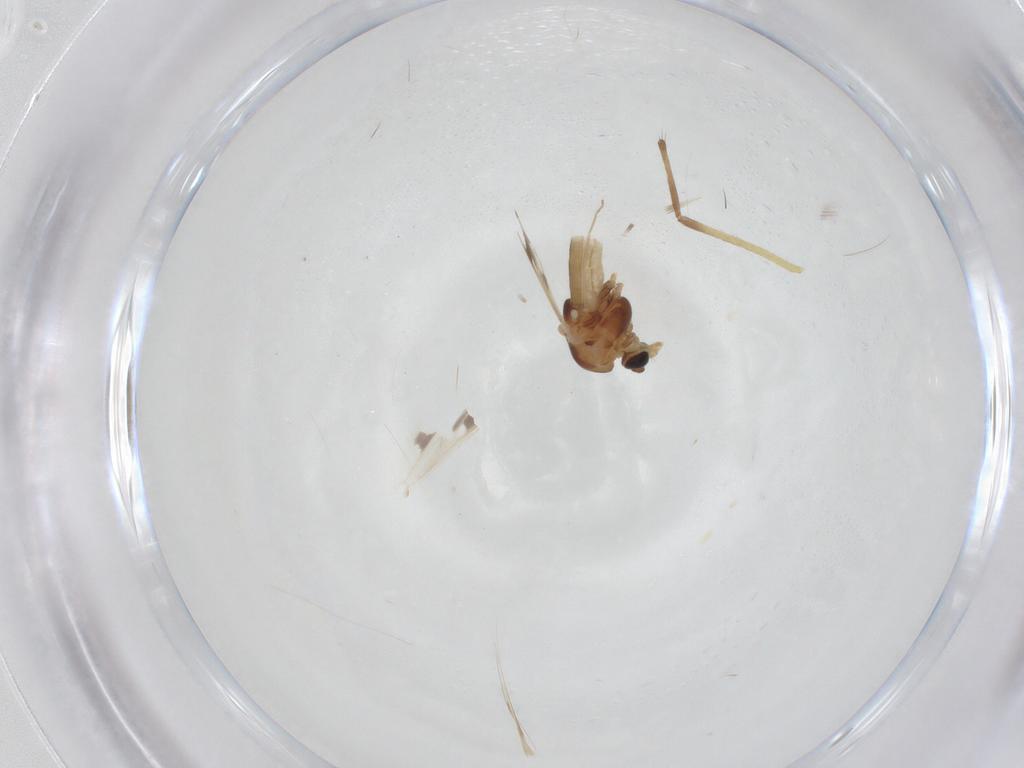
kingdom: Animalia
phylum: Arthropoda
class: Insecta
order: Diptera
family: Chironomidae
